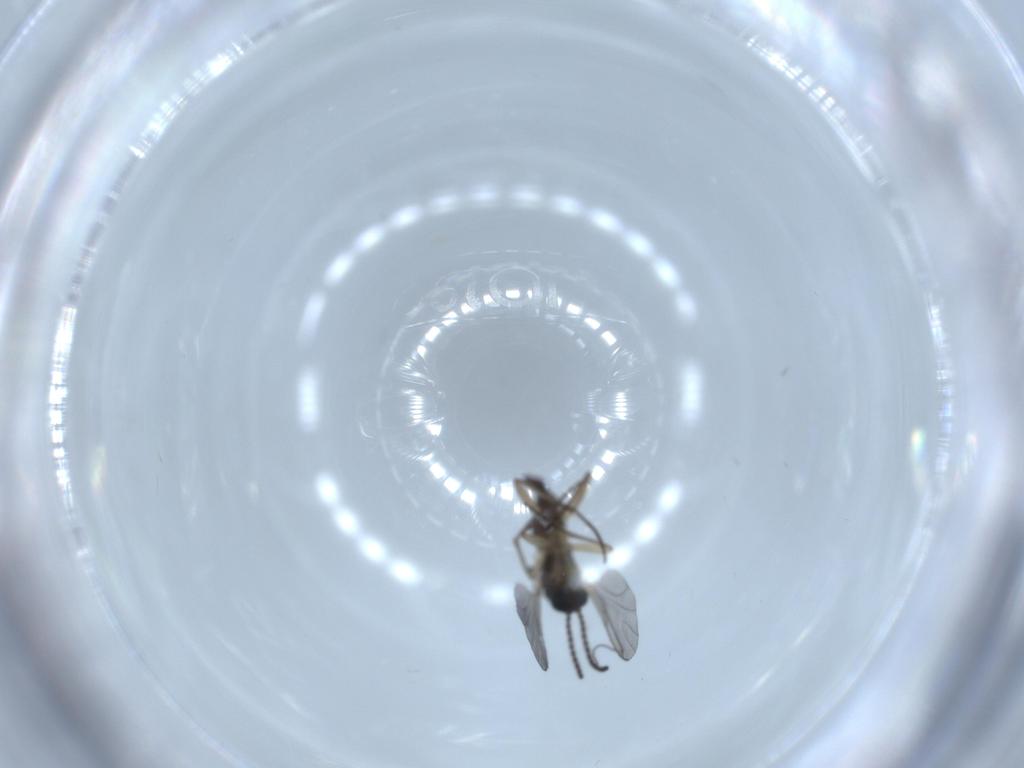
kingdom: Animalia
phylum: Arthropoda
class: Insecta
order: Diptera
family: Sciaridae
